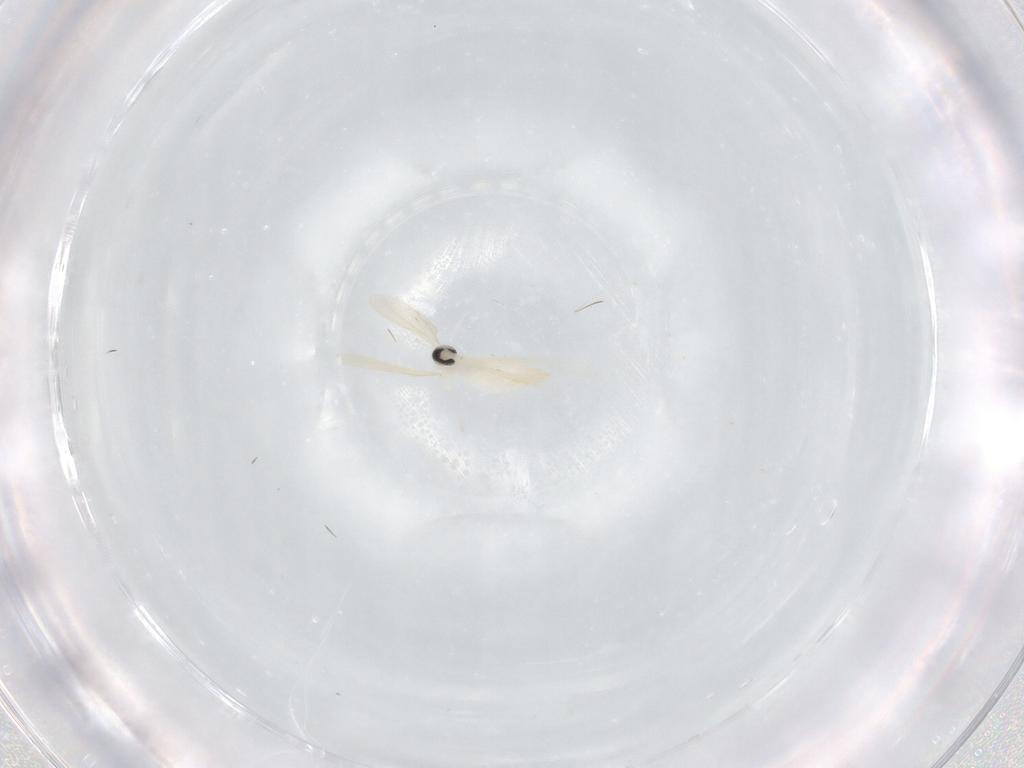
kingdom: Animalia
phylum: Arthropoda
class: Insecta
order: Diptera
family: Cecidomyiidae
